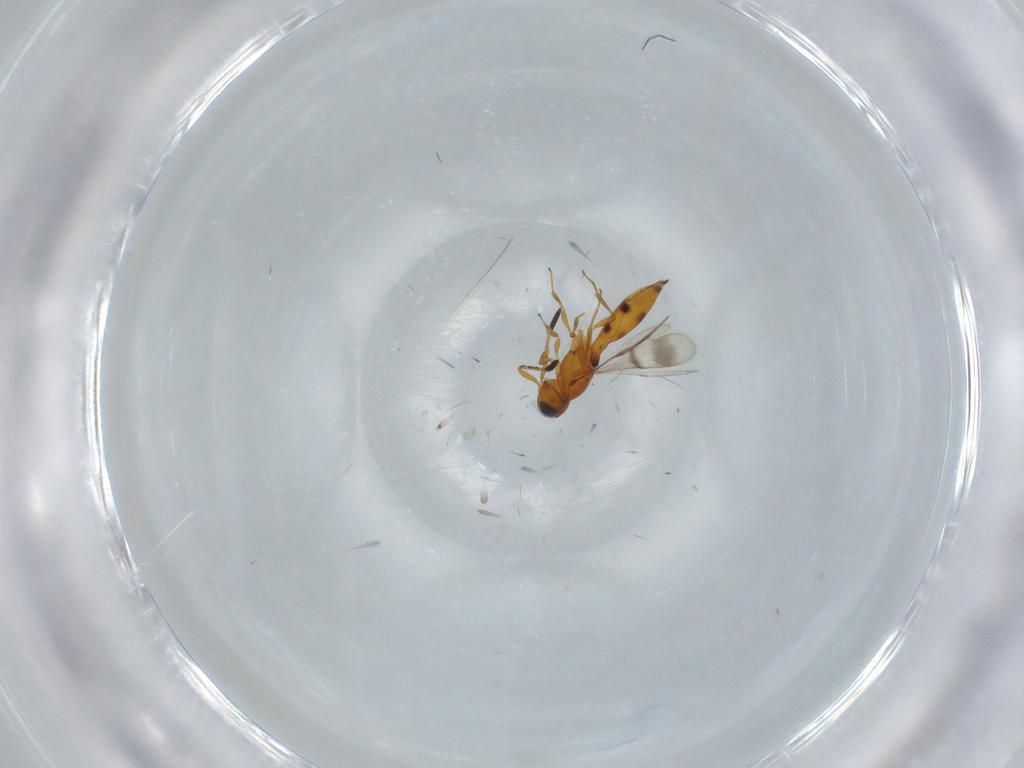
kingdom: Animalia
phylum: Arthropoda
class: Insecta
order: Hymenoptera
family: Scelionidae
